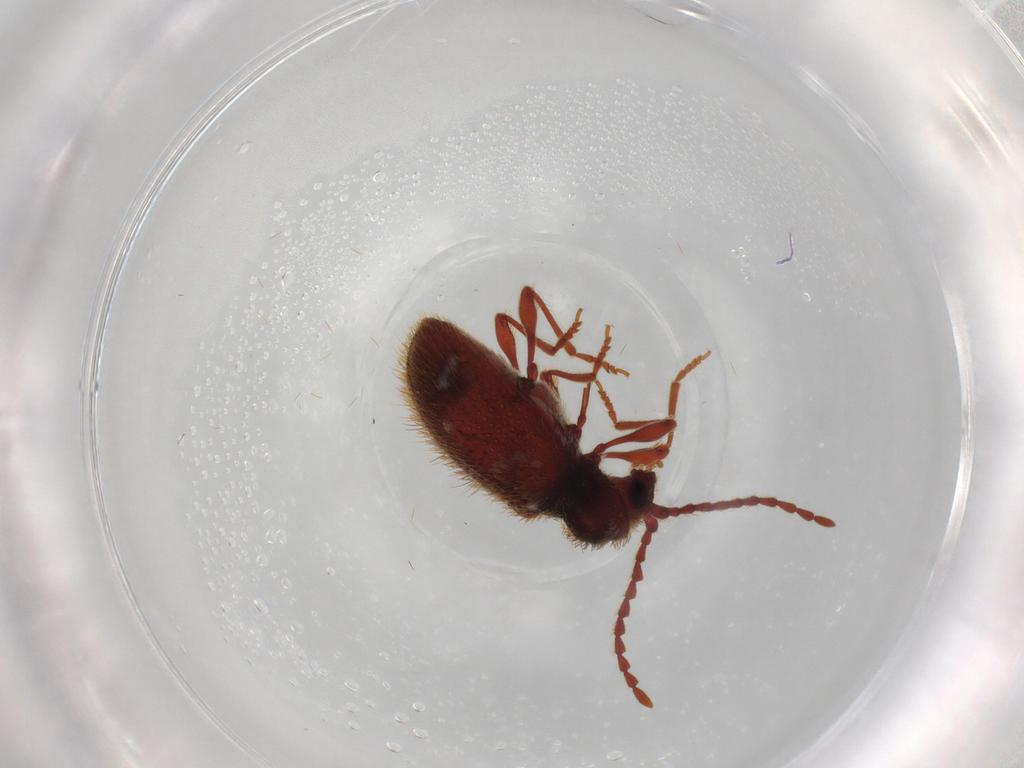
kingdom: Animalia
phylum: Arthropoda
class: Insecta
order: Coleoptera
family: Ptinidae
